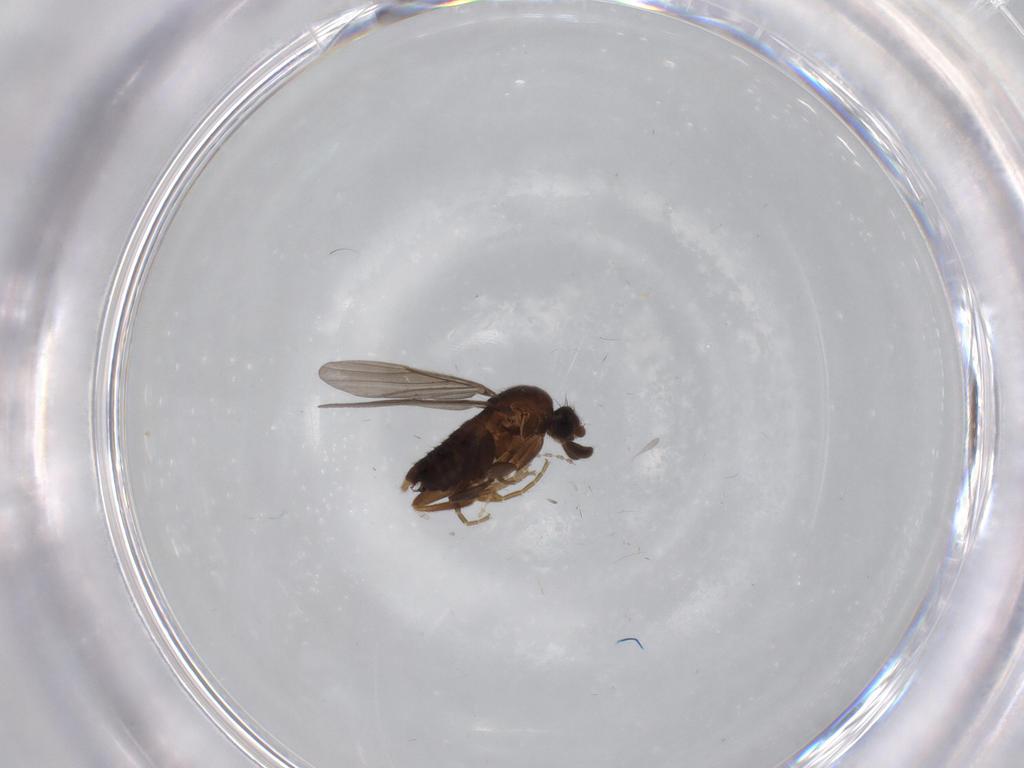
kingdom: Animalia
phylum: Arthropoda
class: Insecta
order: Diptera
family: Phoridae
